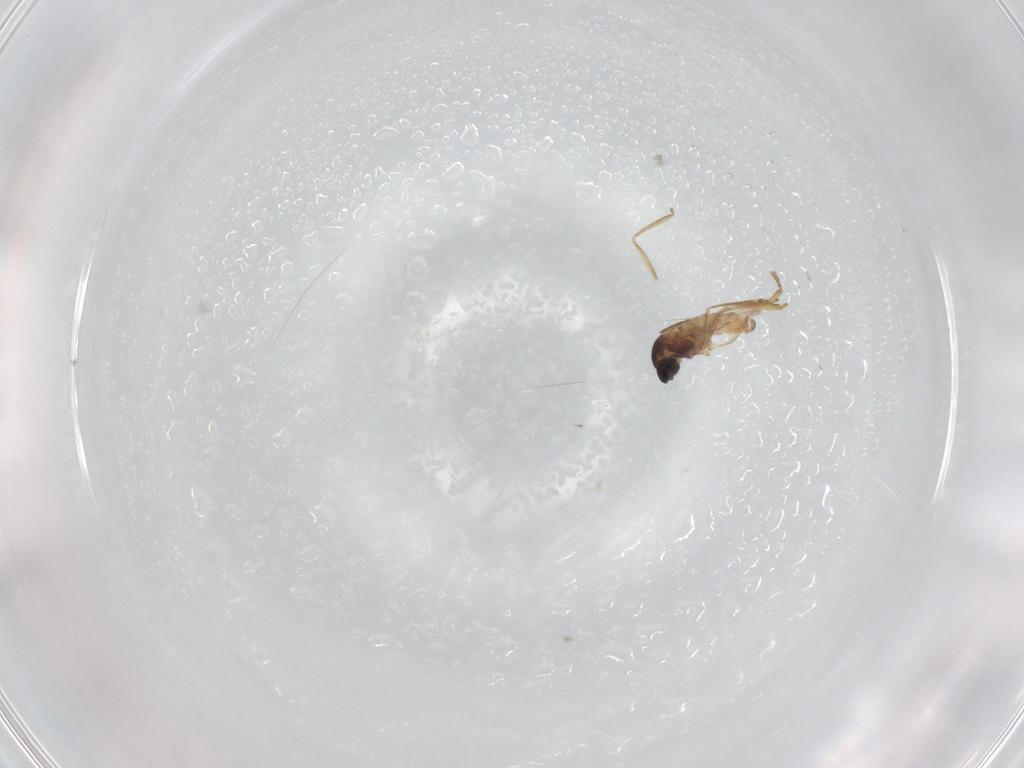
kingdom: Animalia
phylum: Arthropoda
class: Insecta
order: Diptera
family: Cecidomyiidae
